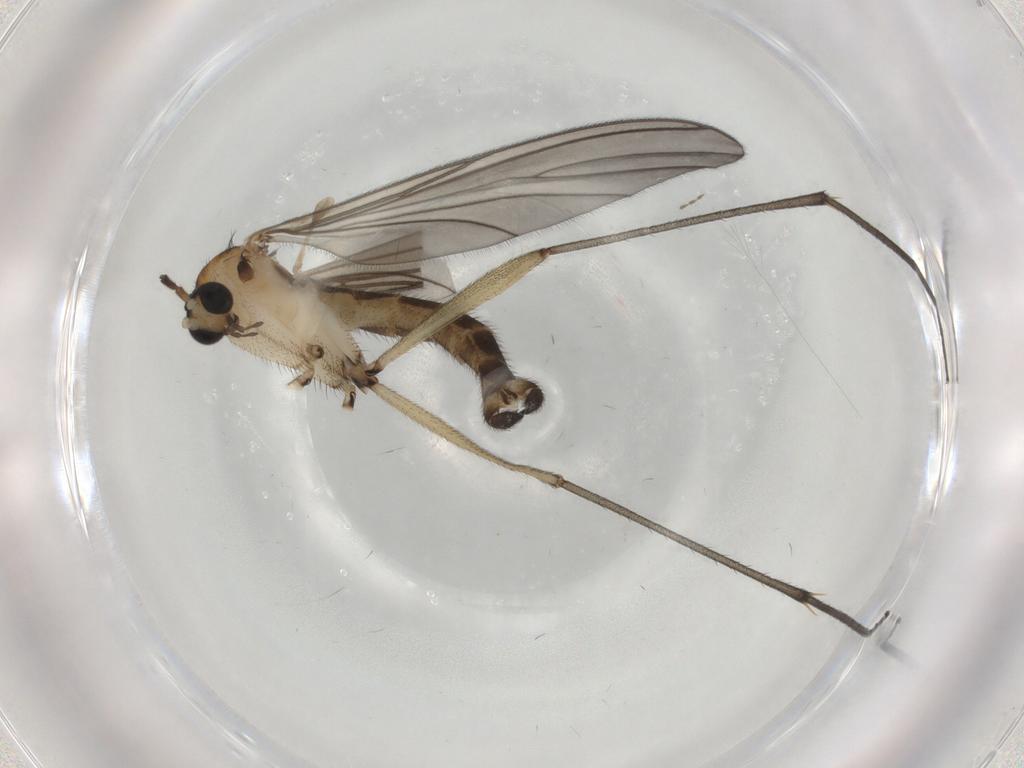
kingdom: Animalia
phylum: Arthropoda
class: Insecta
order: Diptera
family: Sciaridae
